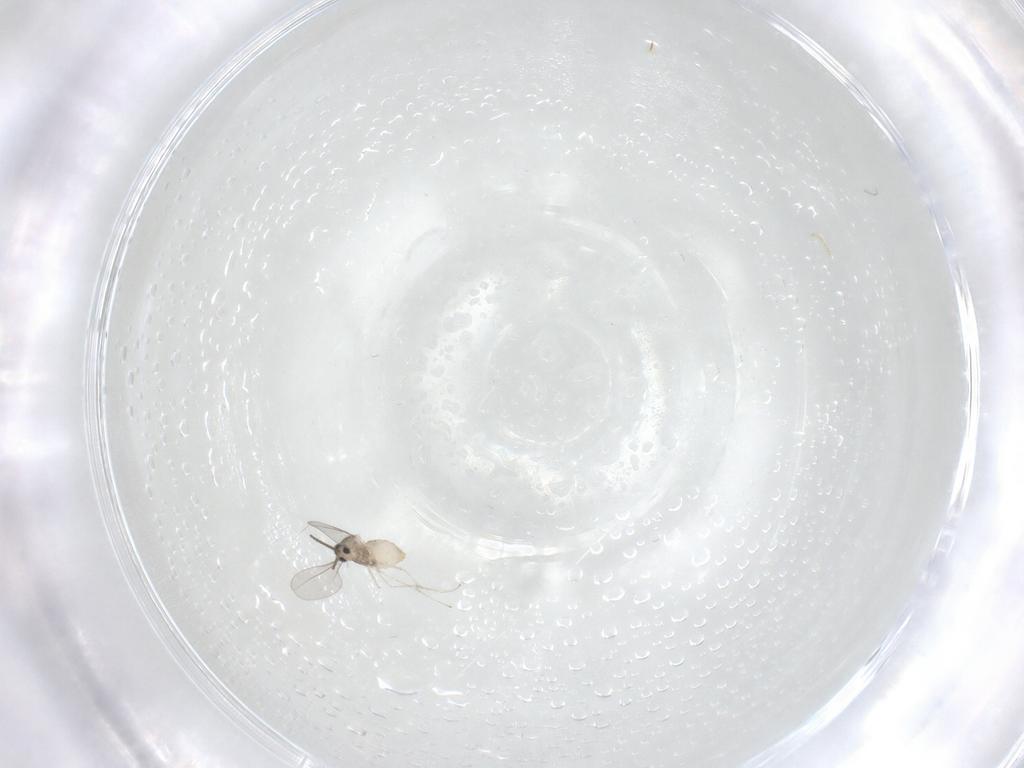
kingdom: Animalia
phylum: Arthropoda
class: Insecta
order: Diptera
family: Cecidomyiidae
